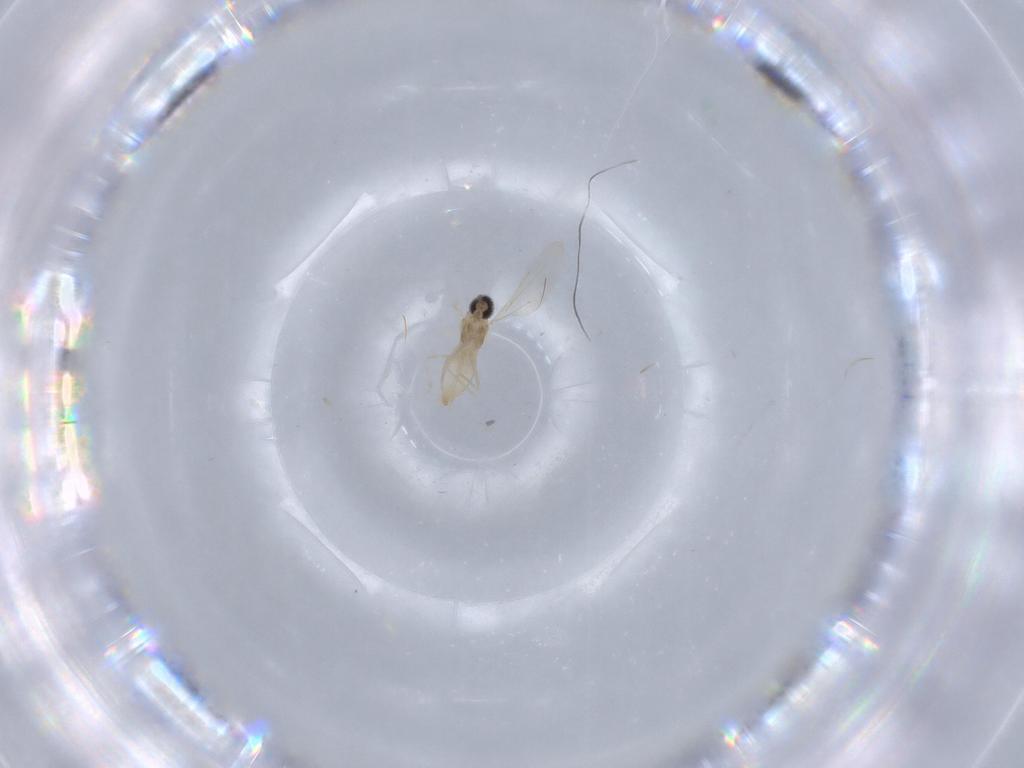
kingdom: Animalia
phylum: Arthropoda
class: Insecta
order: Diptera
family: Cecidomyiidae
